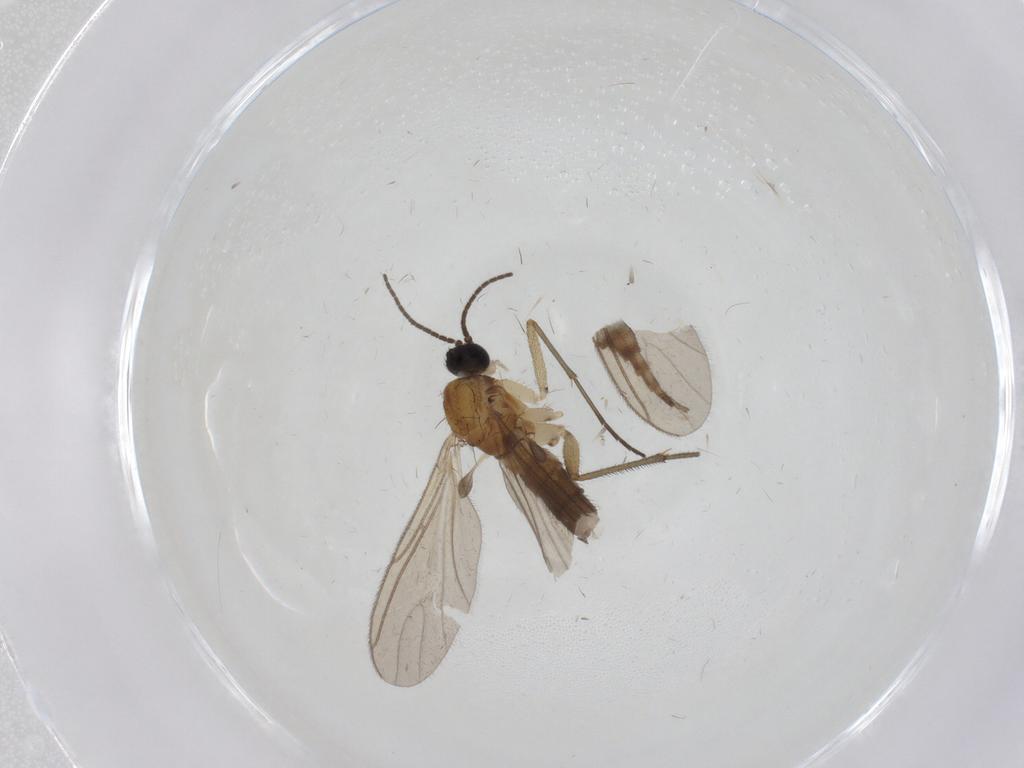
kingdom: Animalia
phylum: Arthropoda
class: Insecta
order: Diptera
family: Cecidomyiidae
